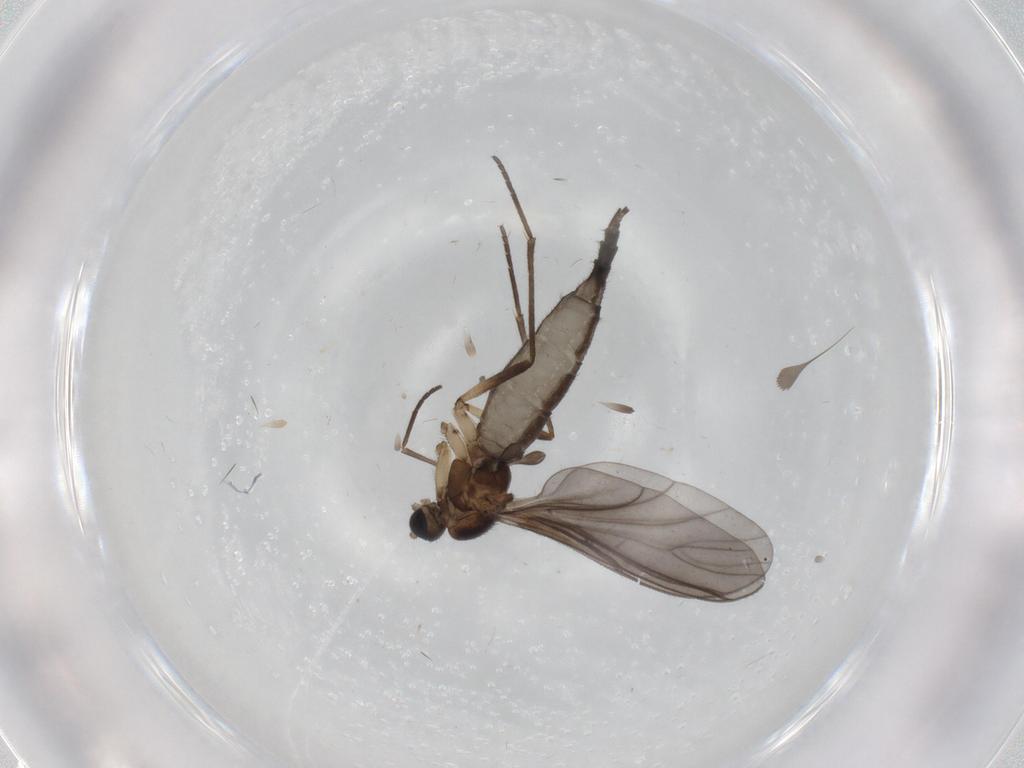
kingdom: Animalia
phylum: Arthropoda
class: Insecta
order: Diptera
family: Sciaridae
